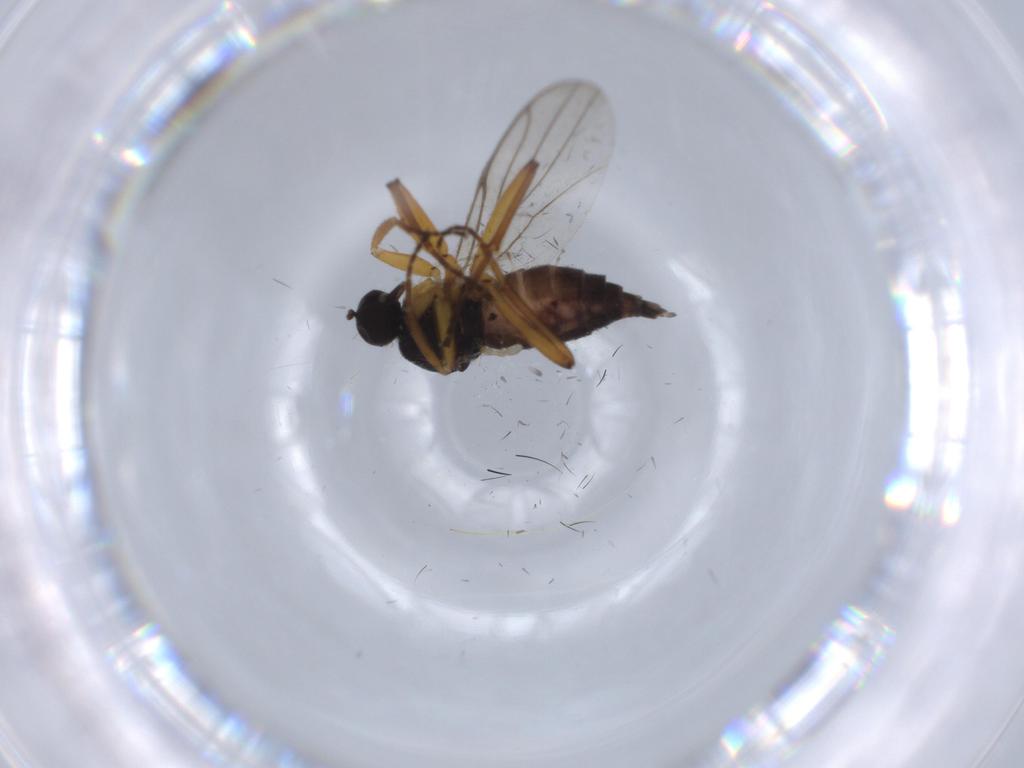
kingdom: Animalia
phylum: Arthropoda
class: Insecta
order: Diptera
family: Hybotidae
